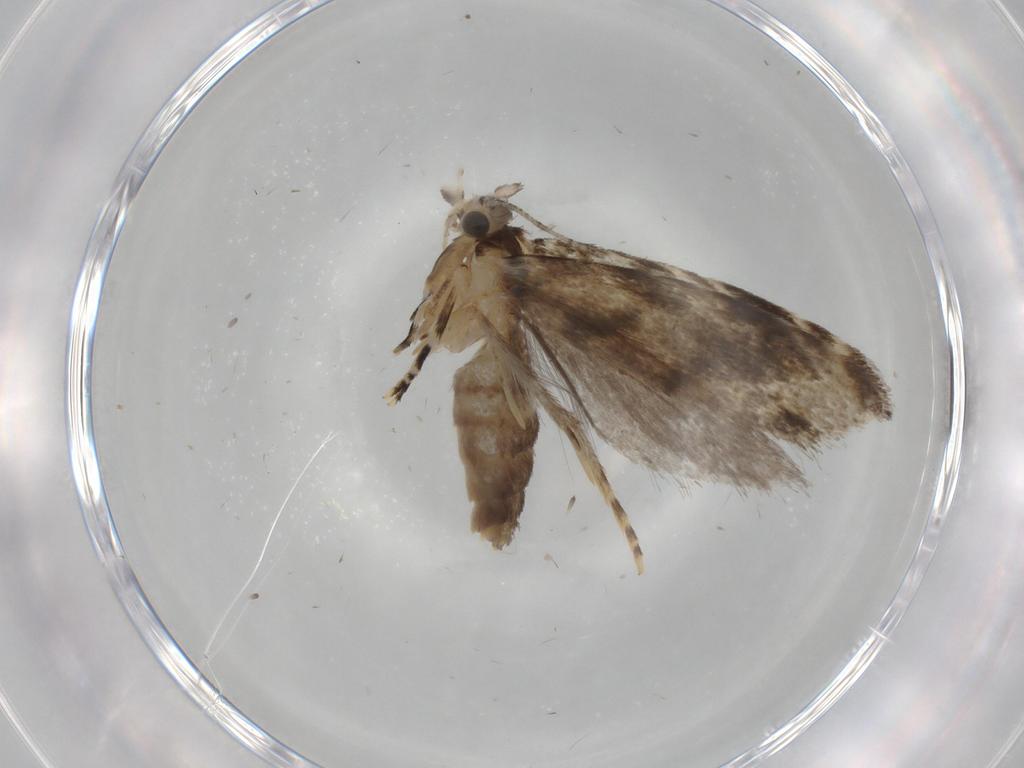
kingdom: Animalia
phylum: Arthropoda
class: Insecta
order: Lepidoptera
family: Tineidae
